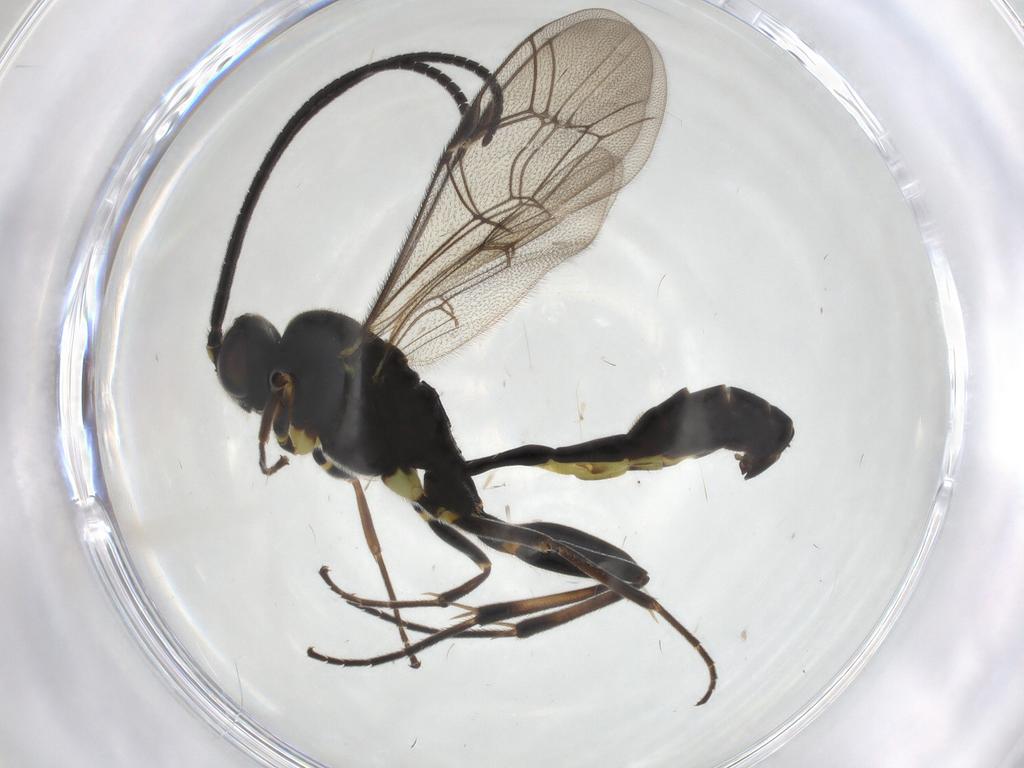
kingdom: Animalia
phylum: Arthropoda
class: Insecta
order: Hymenoptera
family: Ichneumonidae
